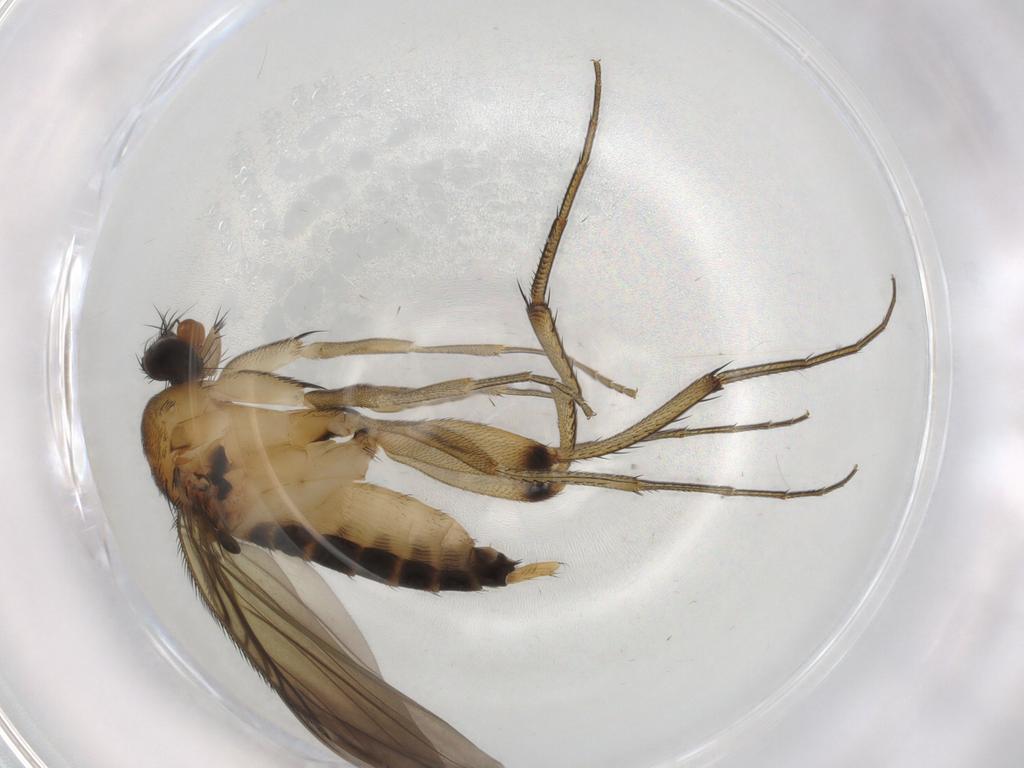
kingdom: Animalia
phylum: Arthropoda
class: Insecta
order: Diptera
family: Phoridae
